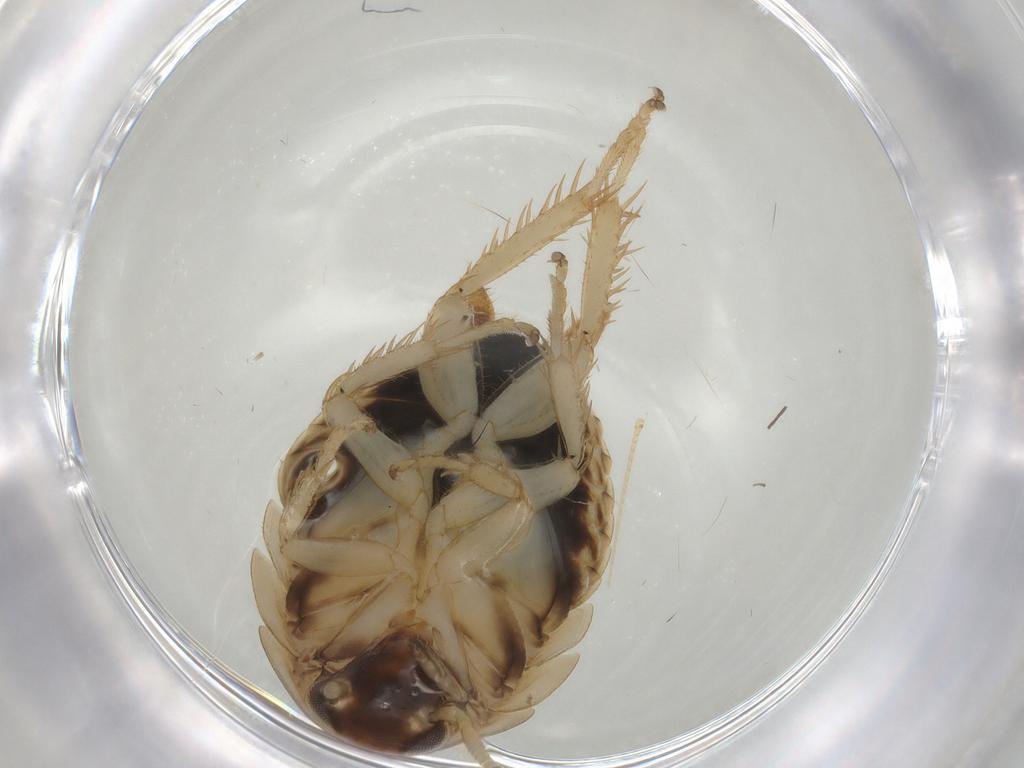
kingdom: Animalia
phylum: Arthropoda
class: Insecta
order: Blattodea
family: Ectobiidae
